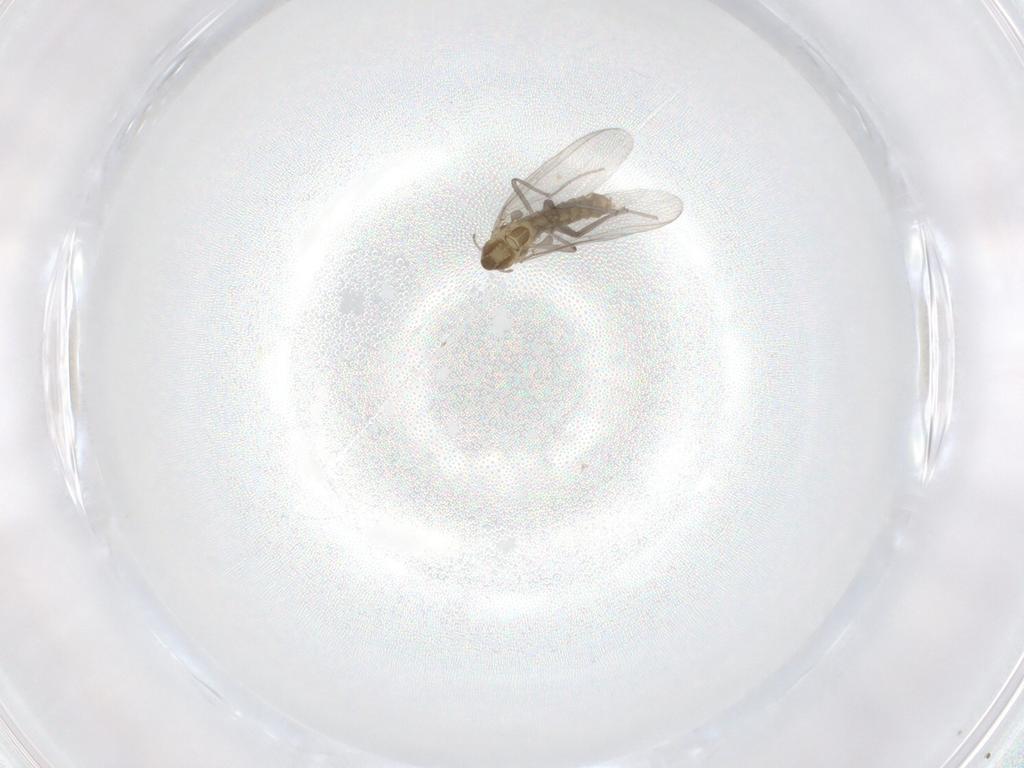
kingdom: Animalia
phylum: Arthropoda
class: Insecta
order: Diptera
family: Chironomidae
